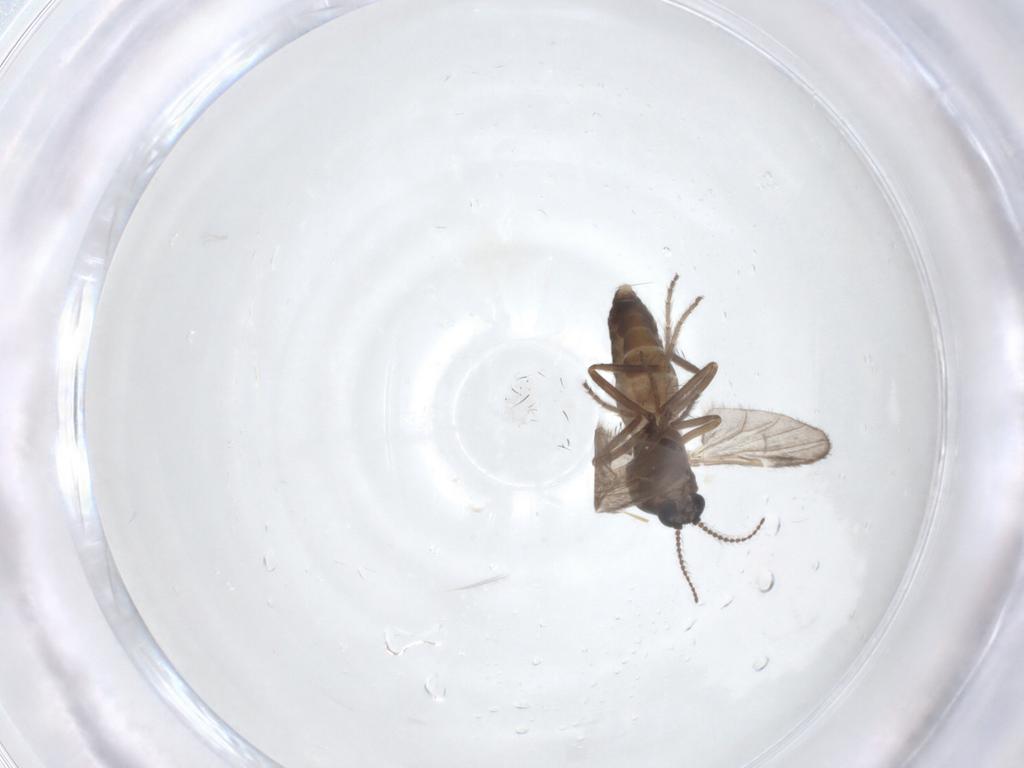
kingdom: Animalia
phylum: Arthropoda
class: Insecta
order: Diptera
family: Ceratopogonidae
